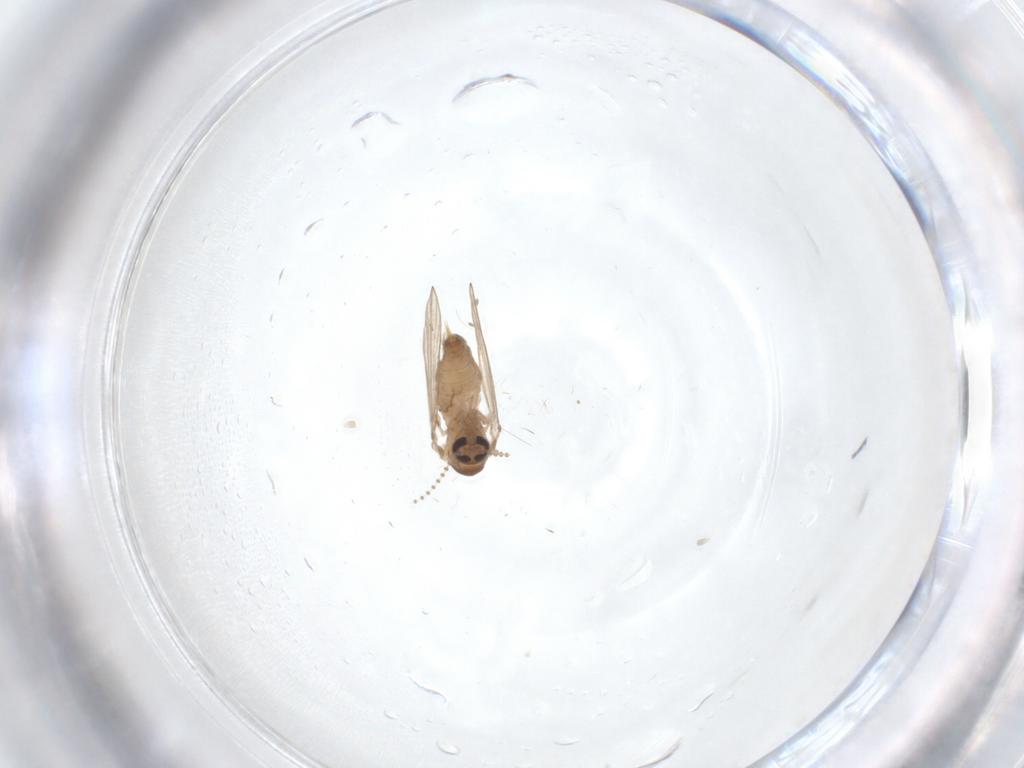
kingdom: Animalia
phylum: Arthropoda
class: Insecta
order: Diptera
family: Psychodidae
